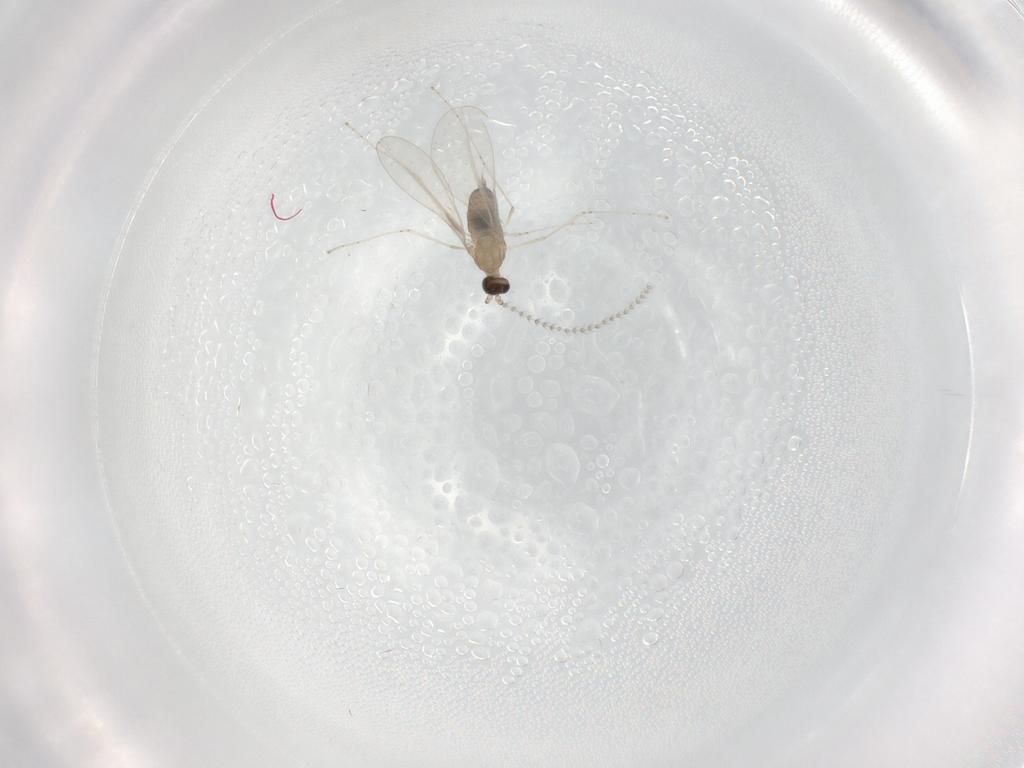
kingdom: Animalia
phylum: Arthropoda
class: Insecta
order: Diptera
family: Cecidomyiidae
